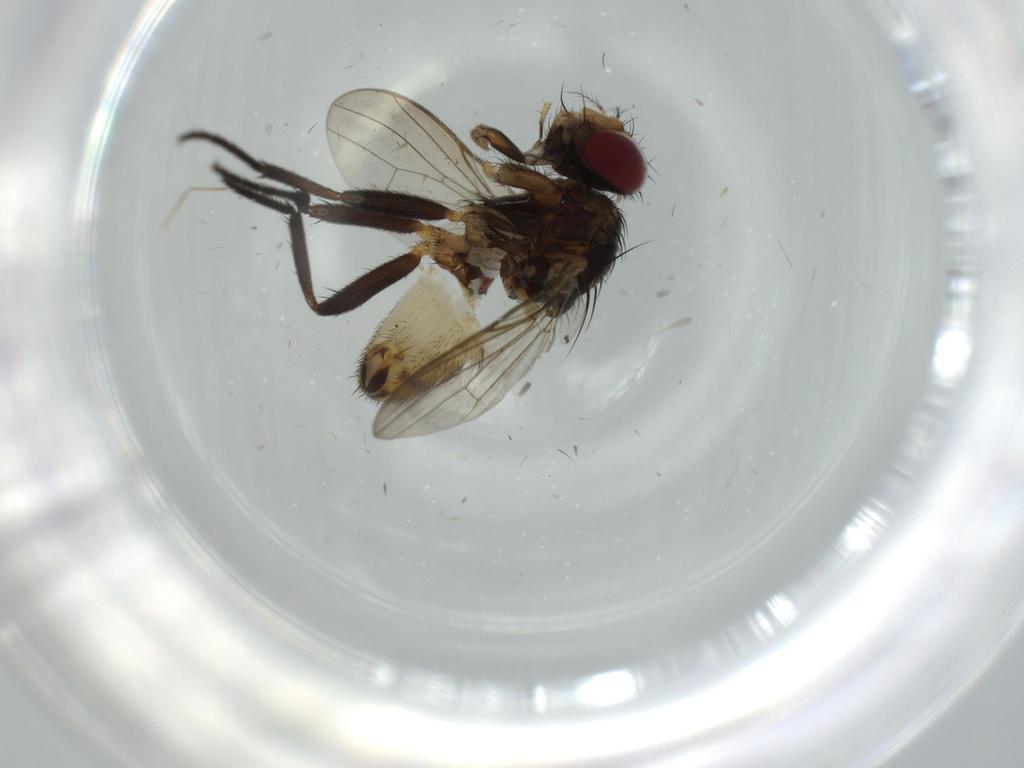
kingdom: Animalia
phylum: Arthropoda
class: Insecta
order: Diptera
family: Anthomyiidae
